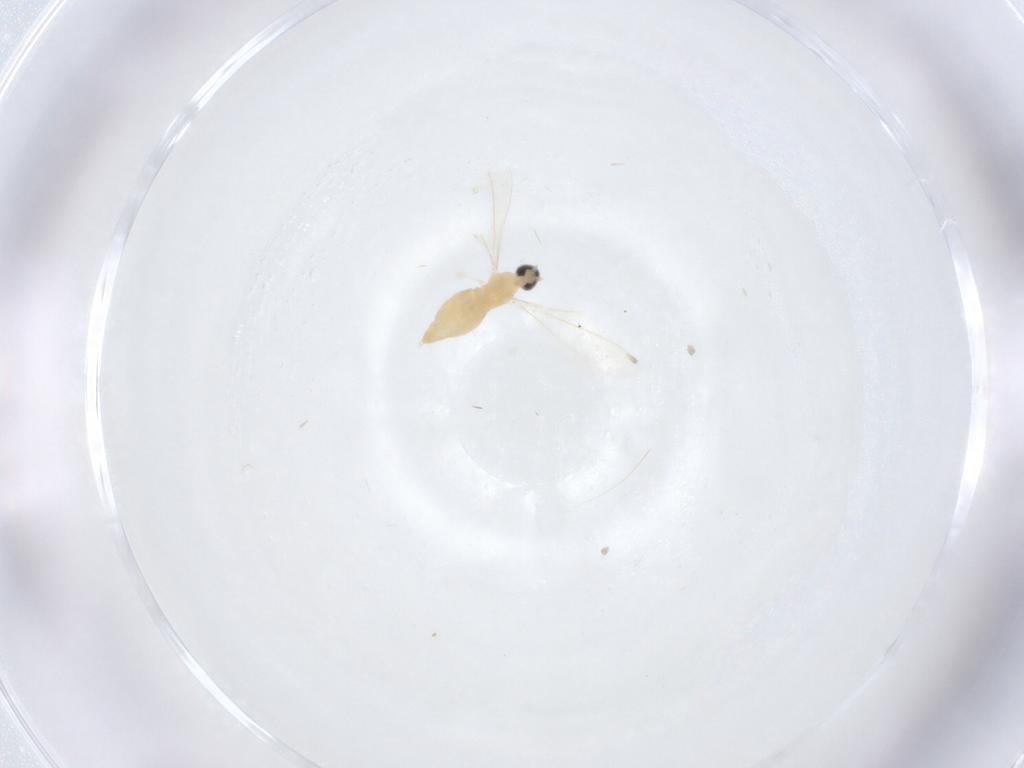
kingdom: Animalia
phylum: Arthropoda
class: Insecta
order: Diptera
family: Cecidomyiidae
